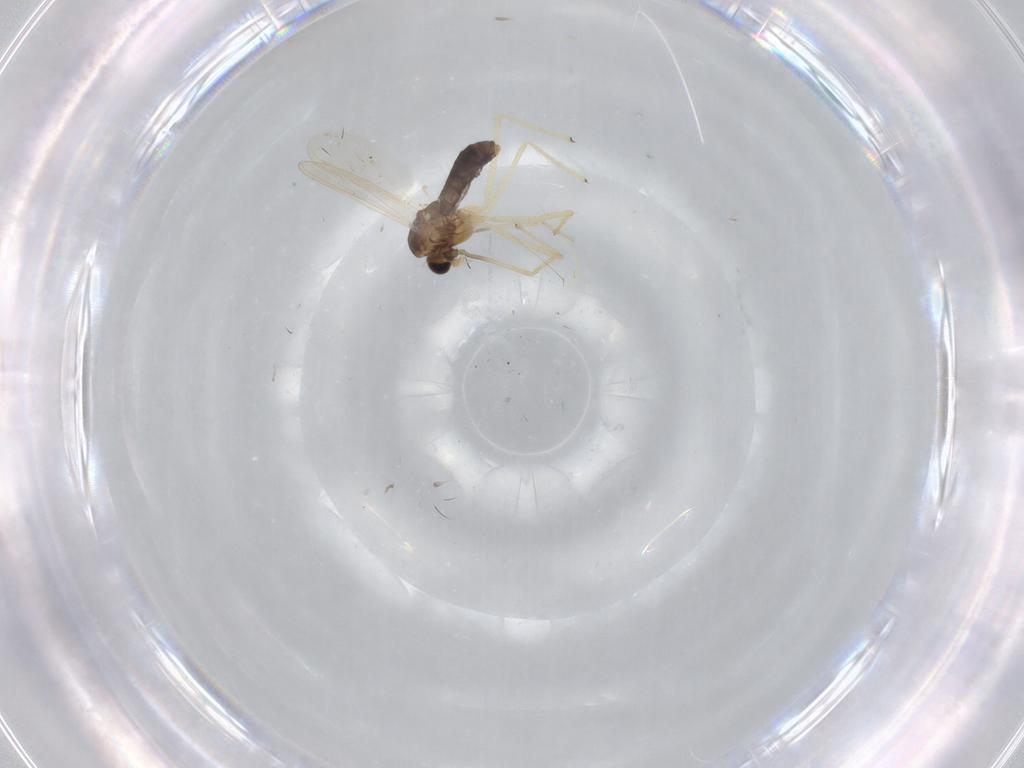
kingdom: Animalia
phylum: Arthropoda
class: Insecta
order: Diptera
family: Chironomidae
